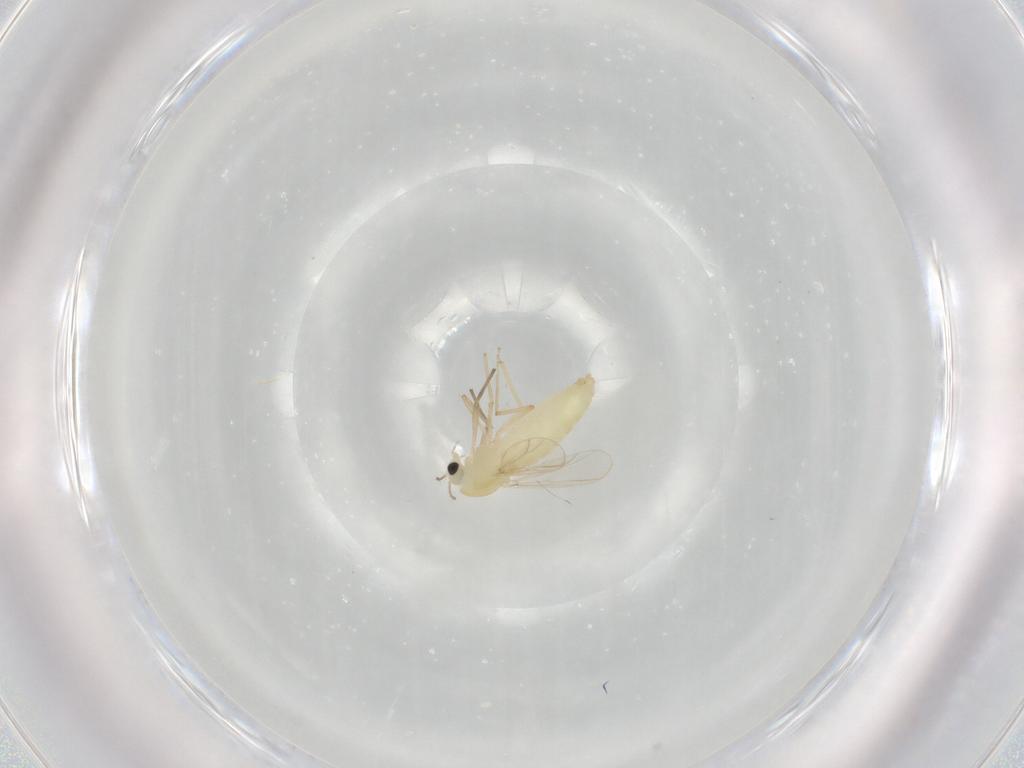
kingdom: Animalia
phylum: Arthropoda
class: Insecta
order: Diptera
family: Chironomidae
